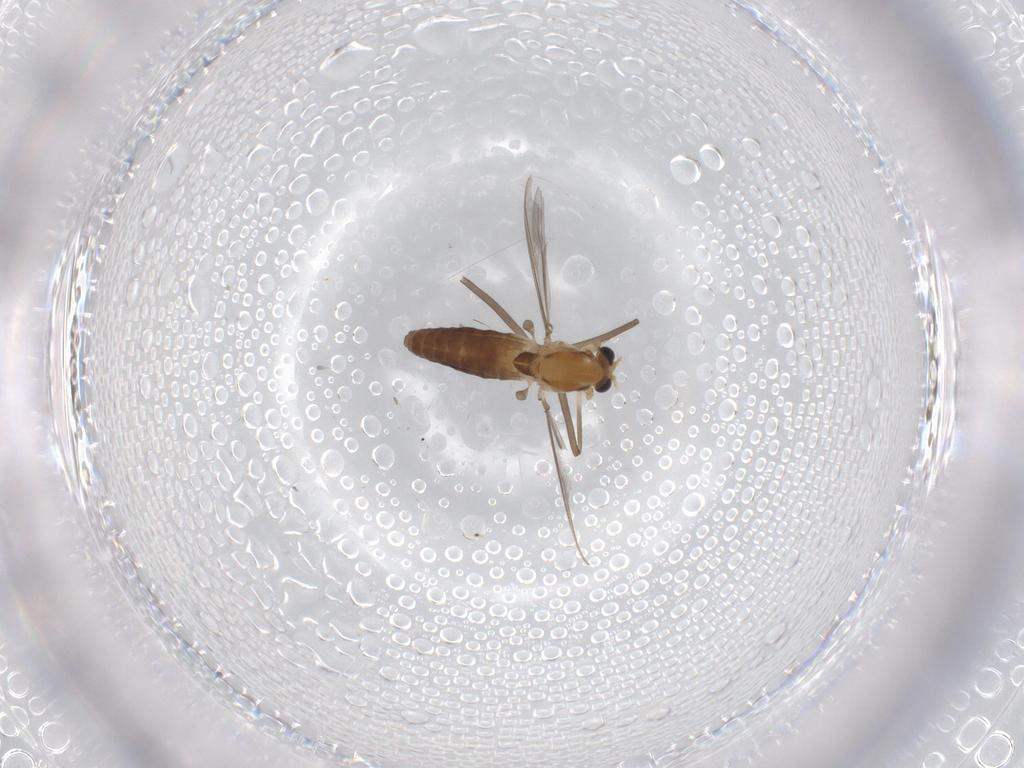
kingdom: Animalia
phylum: Arthropoda
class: Insecta
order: Diptera
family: Chironomidae
